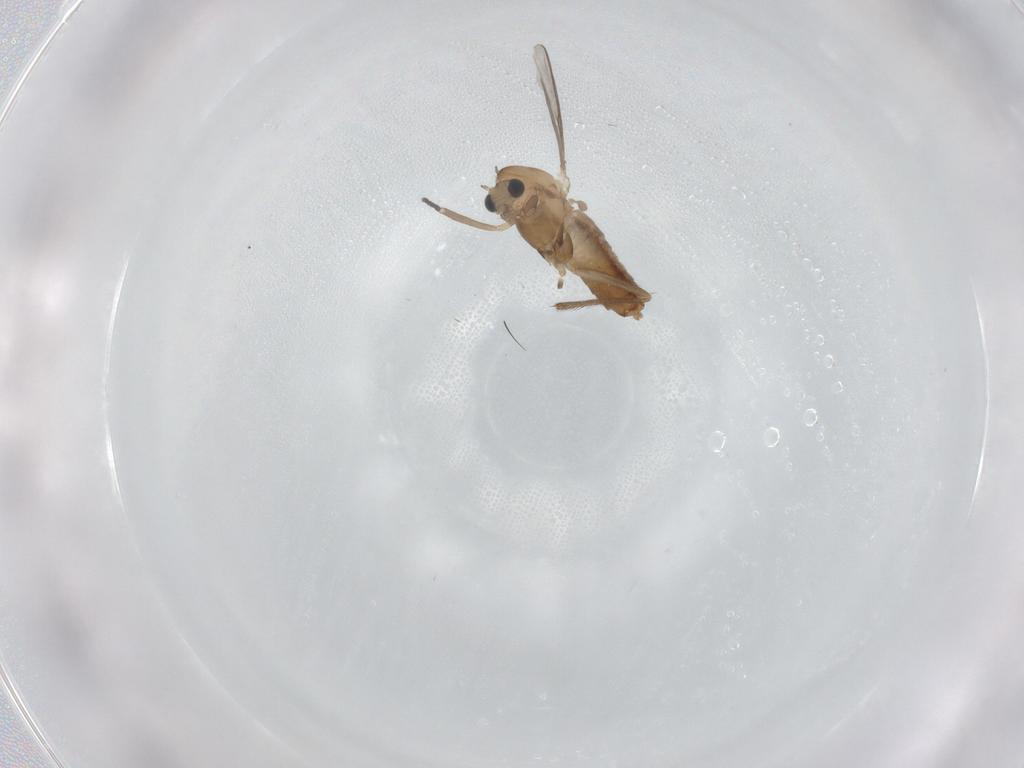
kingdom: Animalia
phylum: Arthropoda
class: Insecta
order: Diptera
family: Chironomidae
